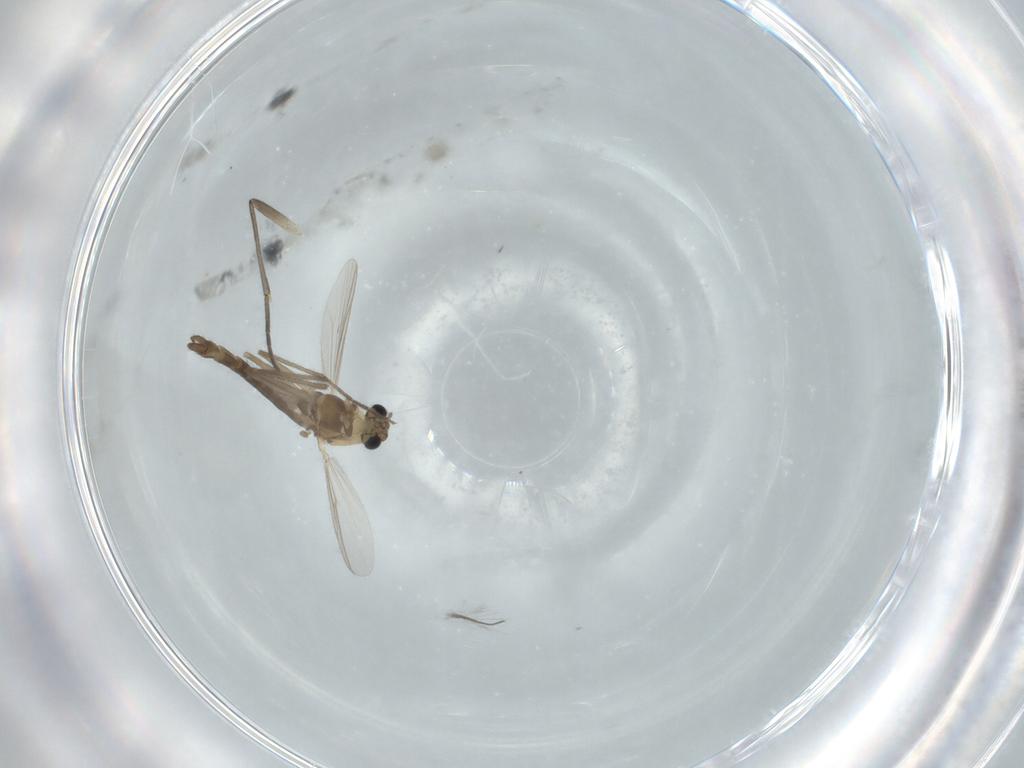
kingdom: Animalia
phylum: Arthropoda
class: Insecta
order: Diptera
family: Chironomidae
